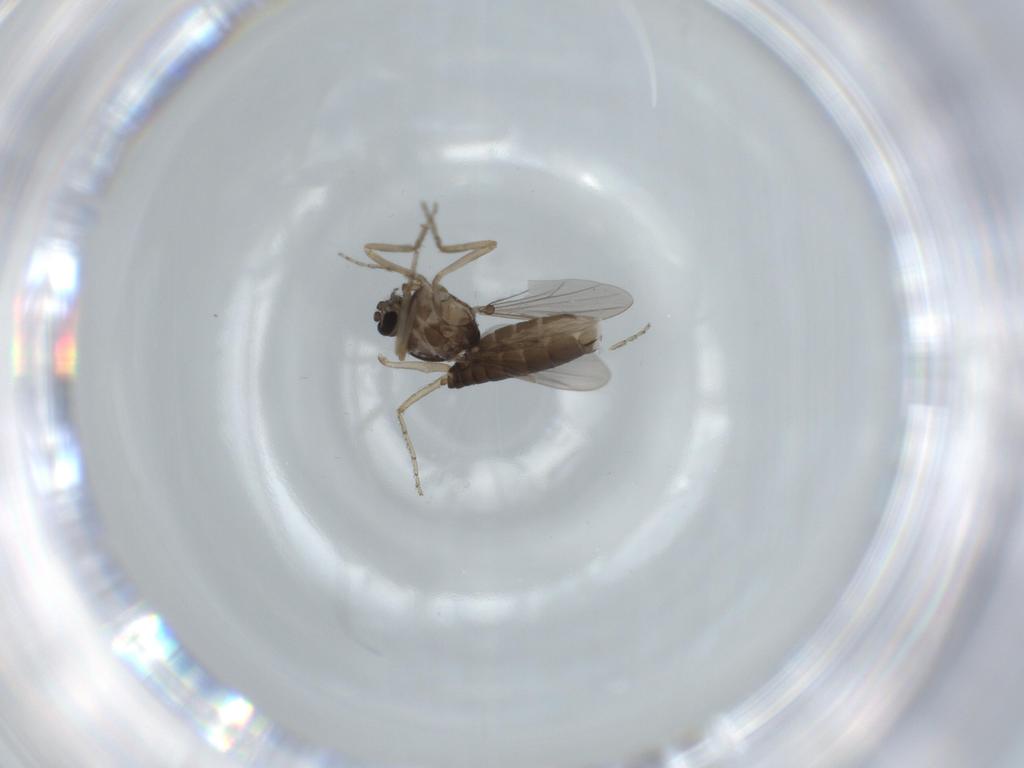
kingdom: Animalia
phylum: Arthropoda
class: Insecta
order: Diptera
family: Ceratopogonidae
